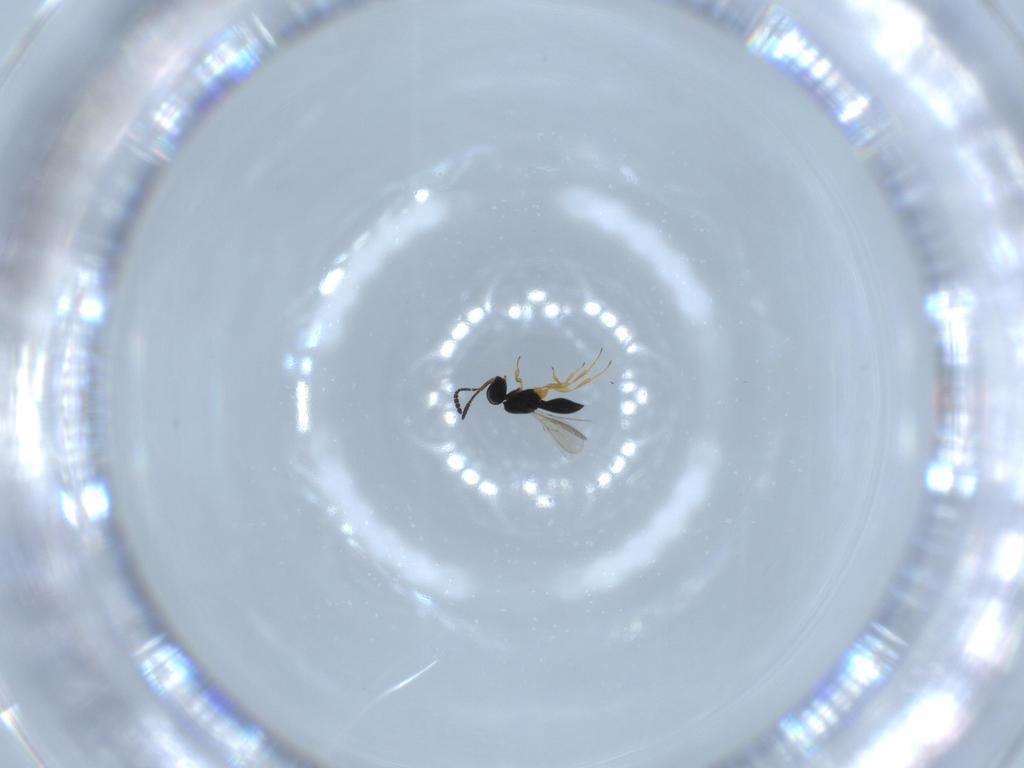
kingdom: Animalia
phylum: Arthropoda
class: Insecta
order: Hymenoptera
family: Scelionidae
